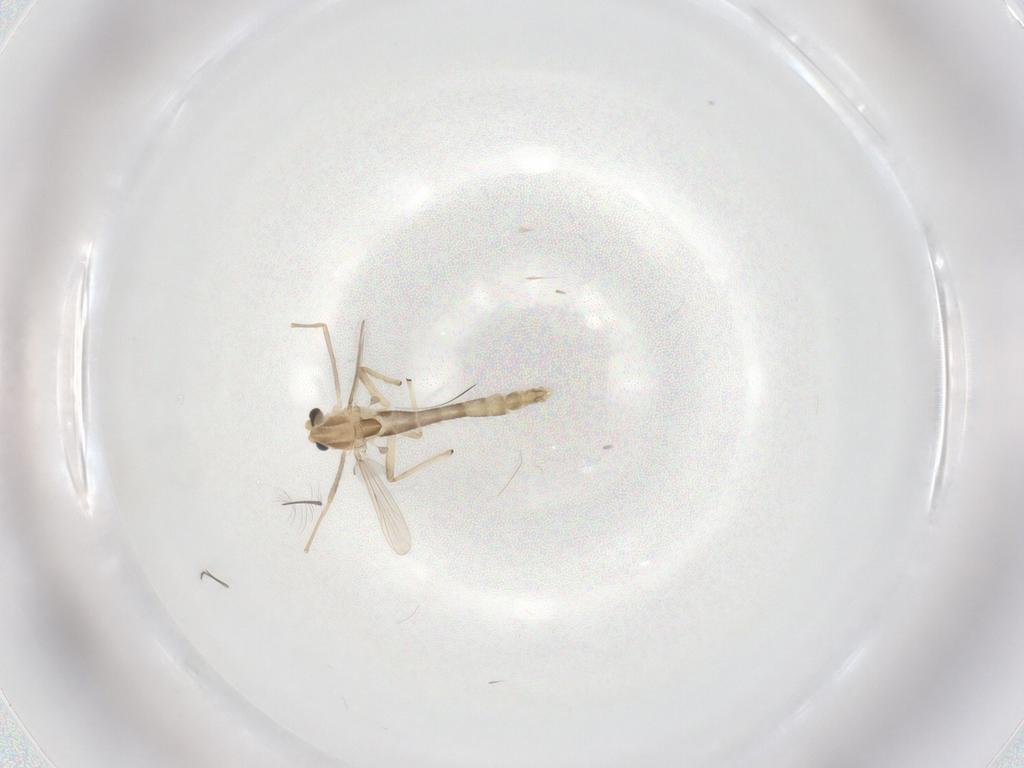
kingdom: Animalia
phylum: Arthropoda
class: Insecta
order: Diptera
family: Chironomidae
